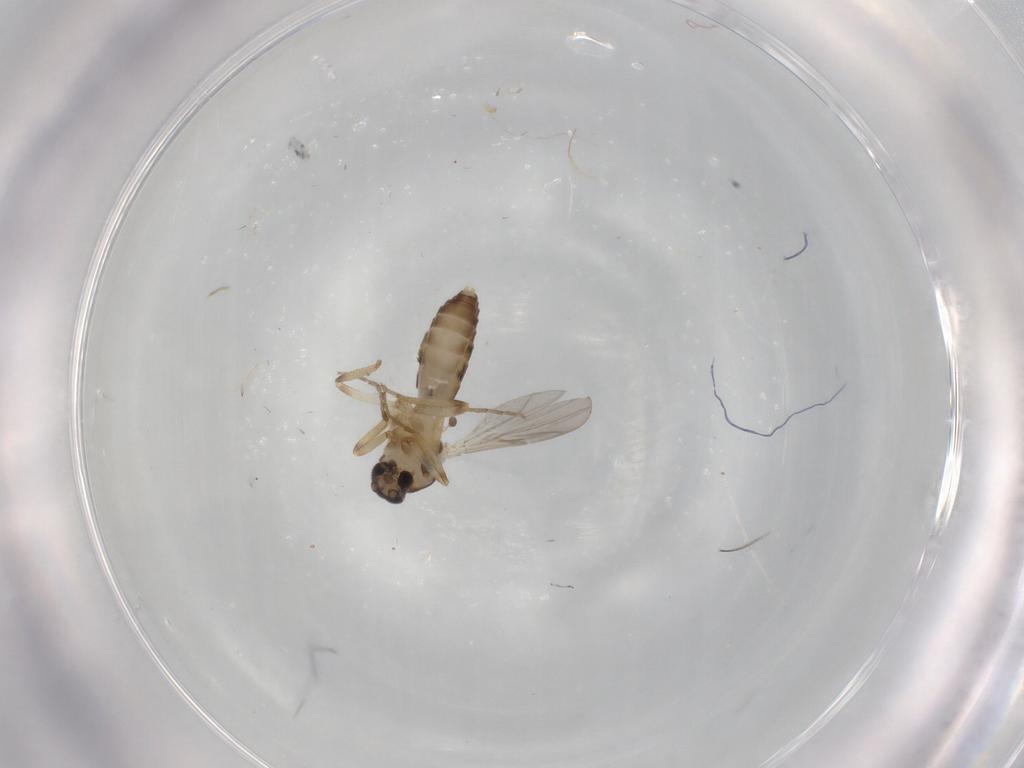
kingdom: Animalia
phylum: Arthropoda
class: Insecta
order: Diptera
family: Ceratopogonidae
